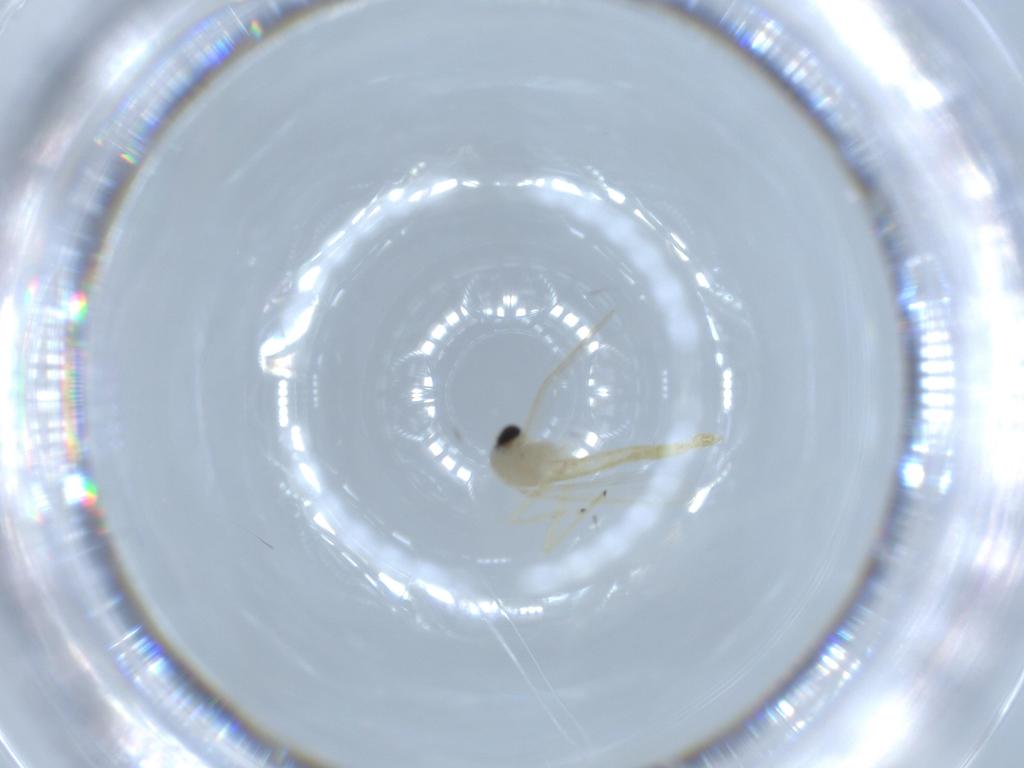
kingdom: Animalia
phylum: Arthropoda
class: Insecta
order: Diptera
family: Chironomidae
